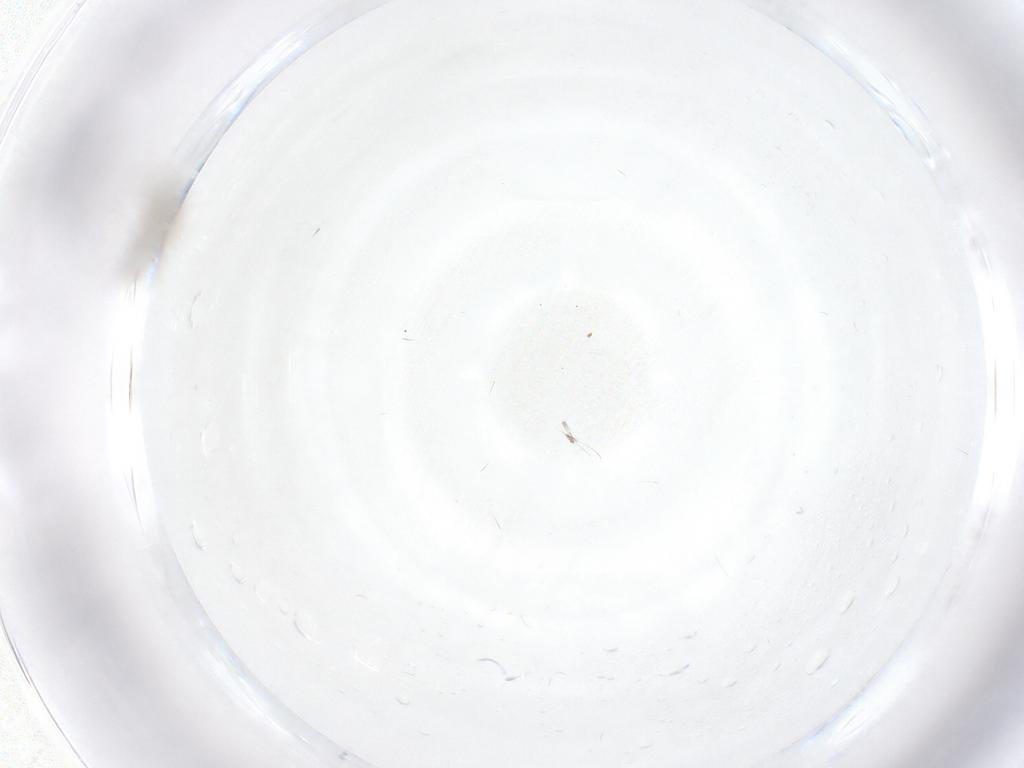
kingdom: Animalia
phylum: Arthropoda
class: Insecta
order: Diptera
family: Cecidomyiidae
